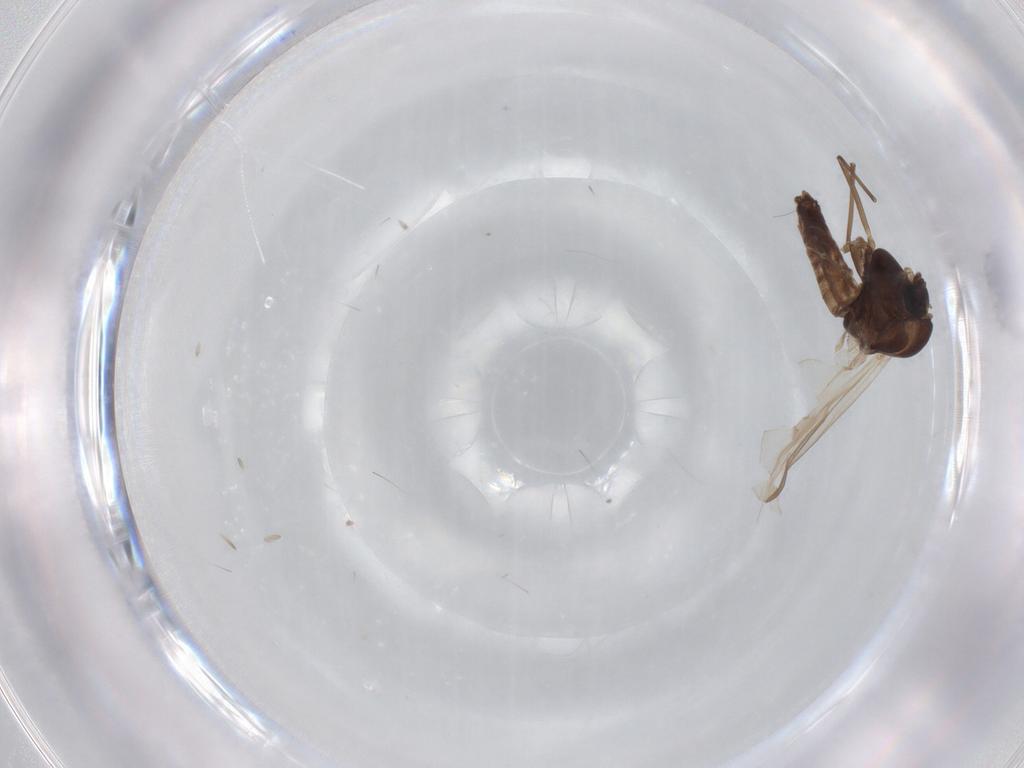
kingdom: Animalia
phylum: Arthropoda
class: Insecta
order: Diptera
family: Chironomidae
